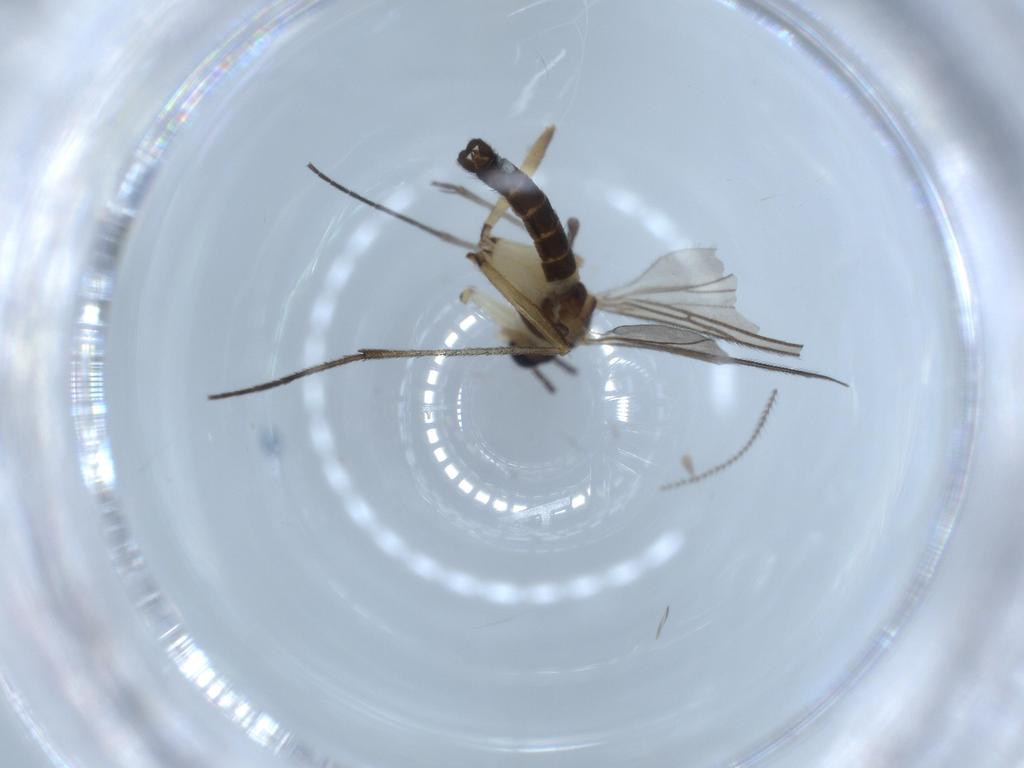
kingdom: Animalia
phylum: Arthropoda
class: Insecta
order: Diptera
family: Sciaridae
